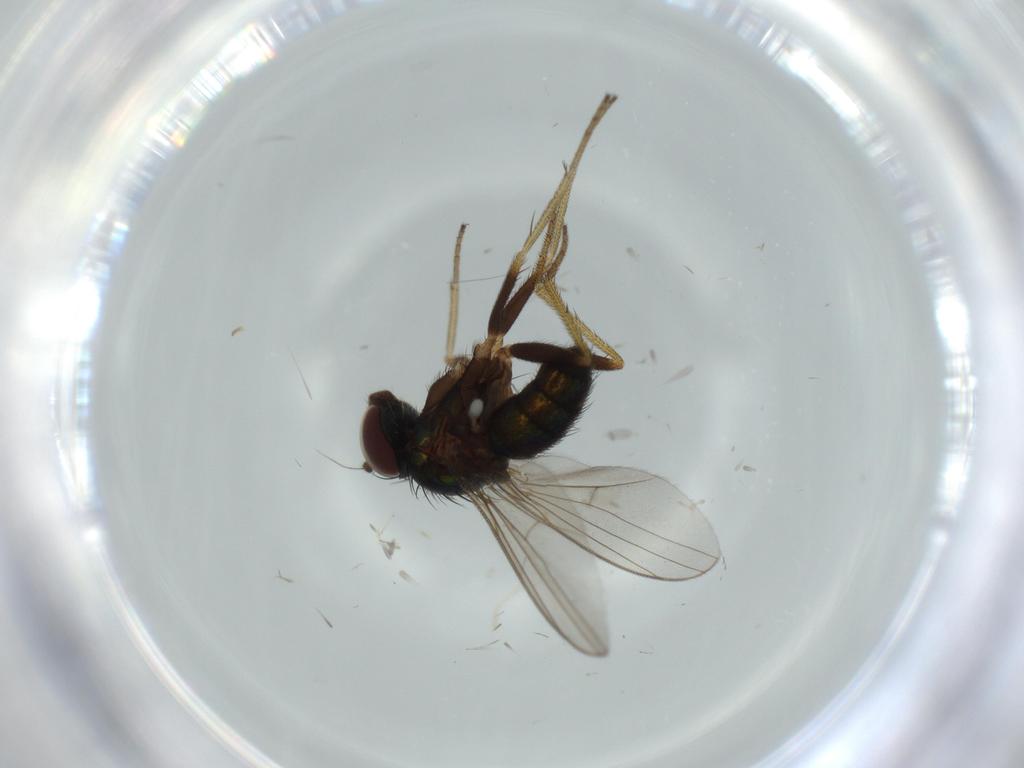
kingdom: Animalia
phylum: Arthropoda
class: Insecta
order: Diptera
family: Dolichopodidae
